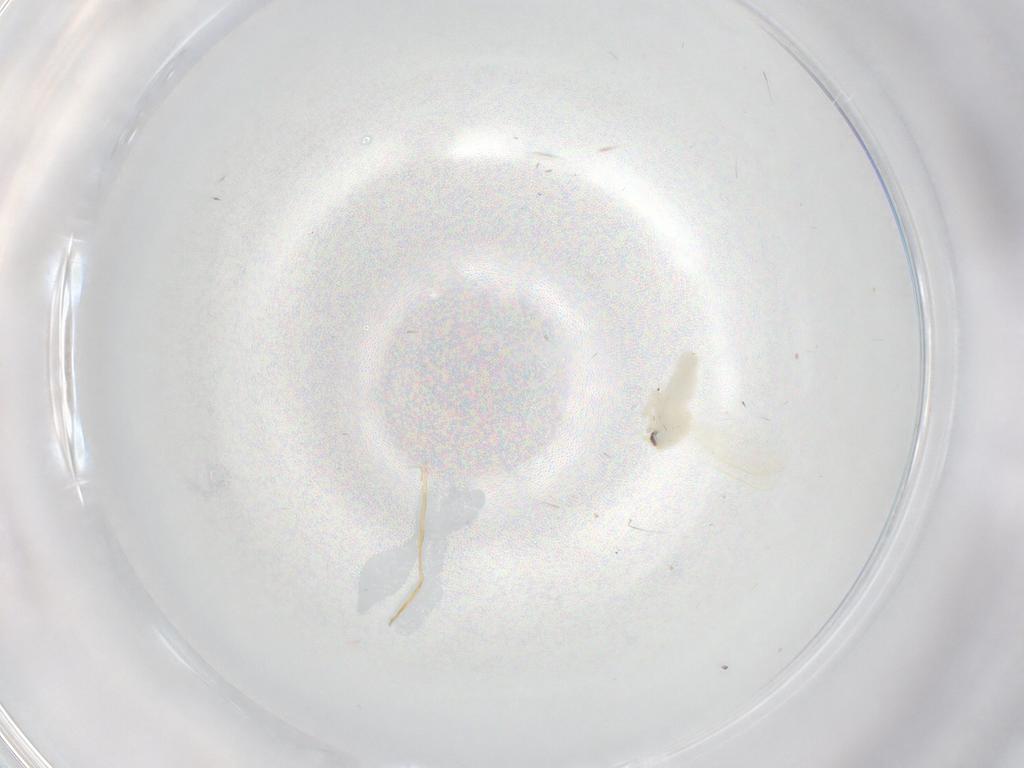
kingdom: Animalia
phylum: Arthropoda
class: Insecta
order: Hemiptera
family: Aleyrodidae
